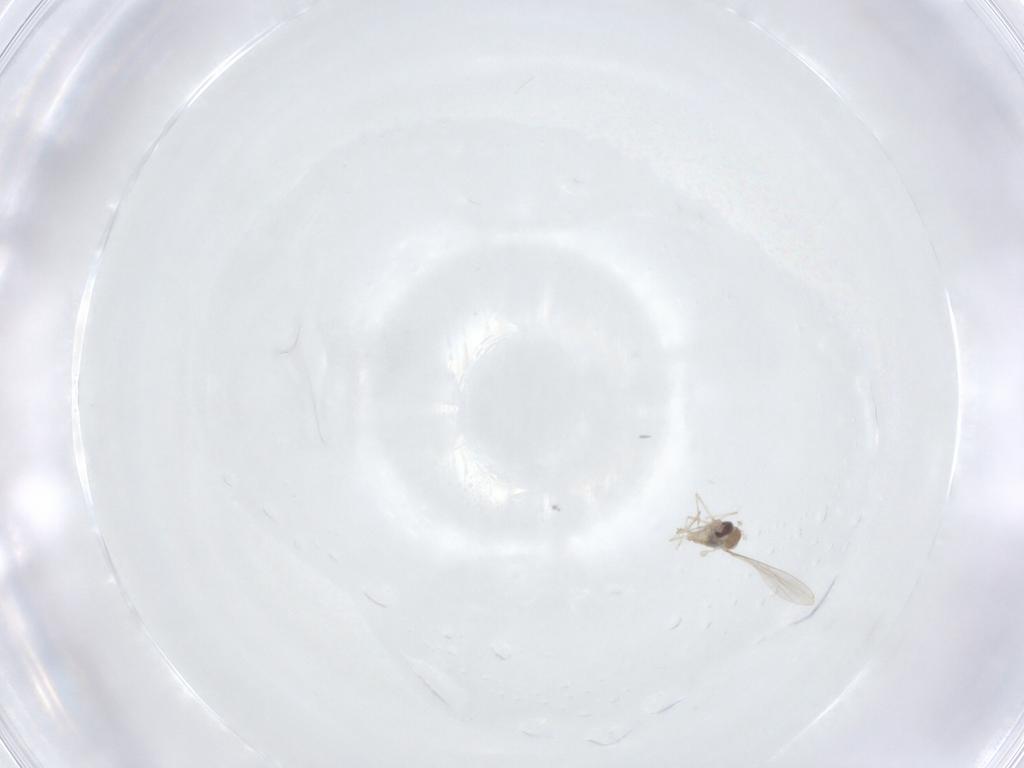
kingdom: Animalia
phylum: Arthropoda
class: Insecta
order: Diptera
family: Cecidomyiidae
